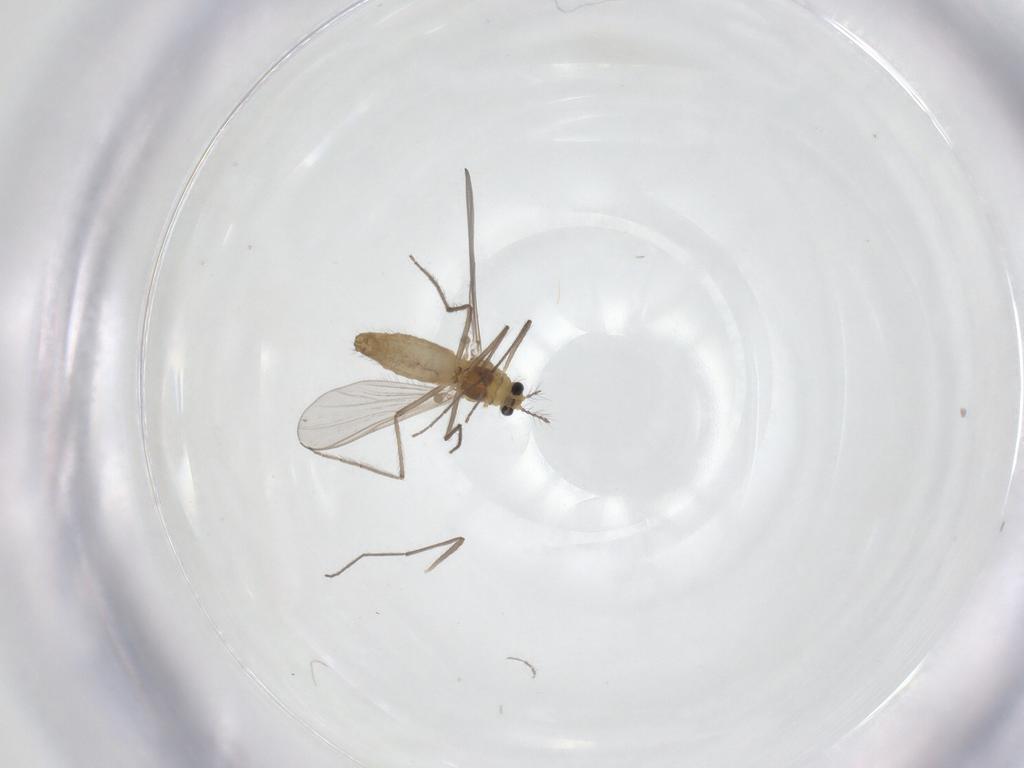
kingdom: Animalia
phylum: Arthropoda
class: Insecta
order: Diptera
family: Chironomidae
